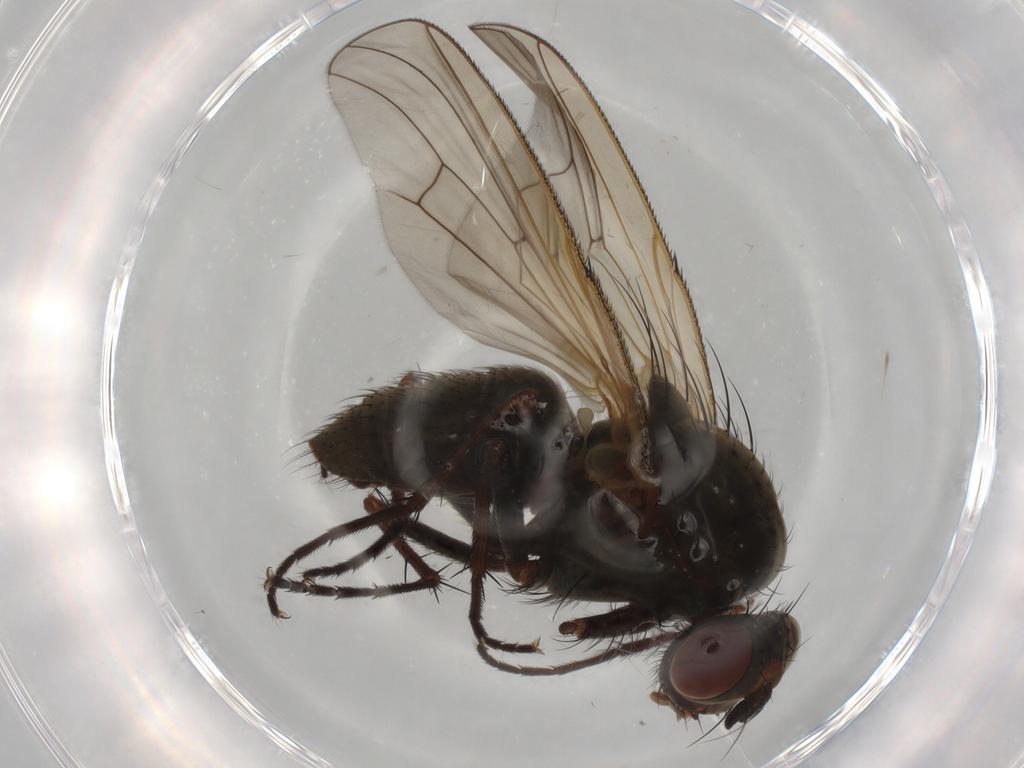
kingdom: Animalia
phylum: Arthropoda
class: Insecta
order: Diptera
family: Anthomyiidae
